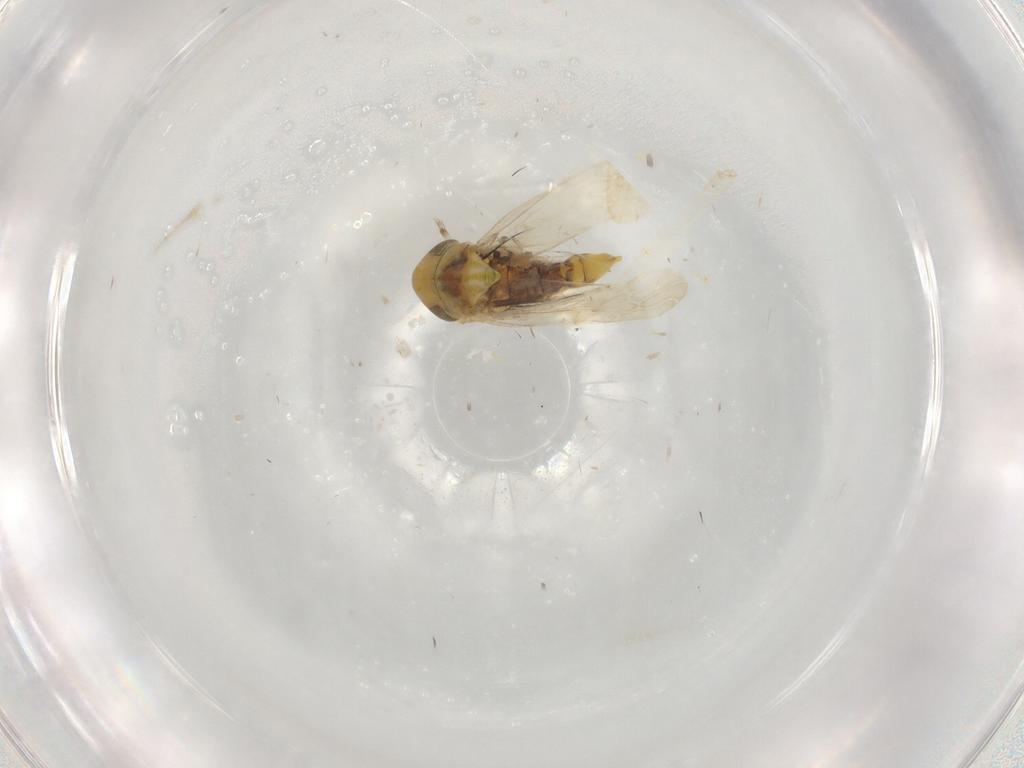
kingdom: Animalia
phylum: Arthropoda
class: Insecta
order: Hemiptera
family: Cicadellidae
